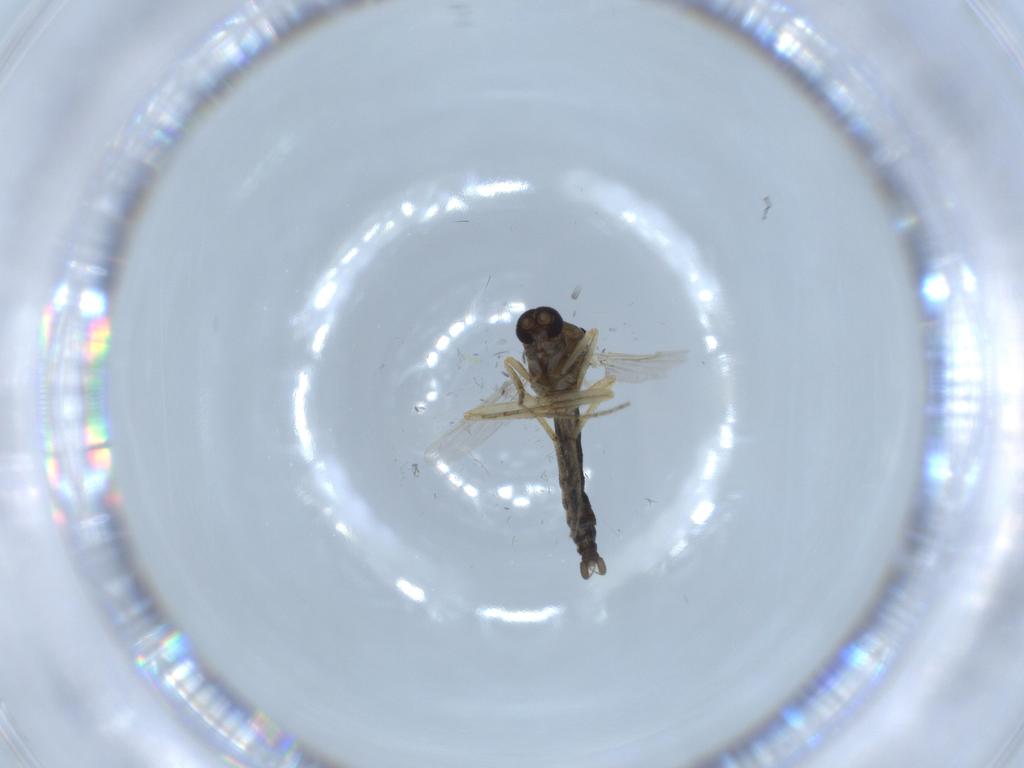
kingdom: Animalia
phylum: Arthropoda
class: Insecta
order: Diptera
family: Ceratopogonidae
